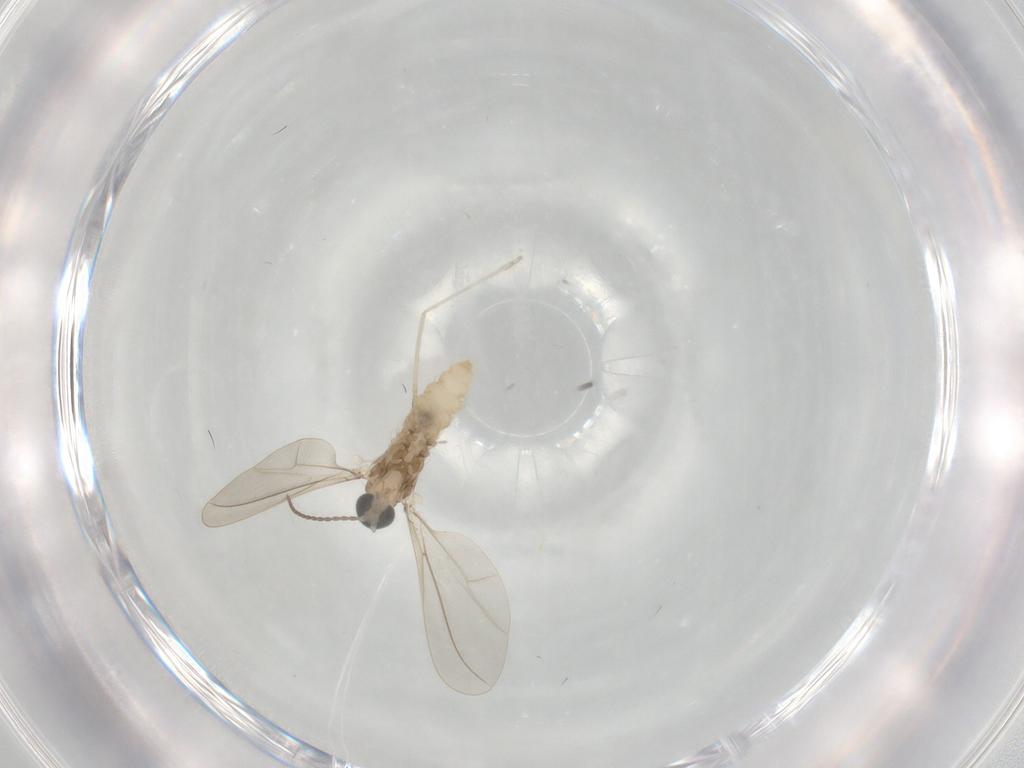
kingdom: Animalia
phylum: Arthropoda
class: Insecta
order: Diptera
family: Cecidomyiidae
